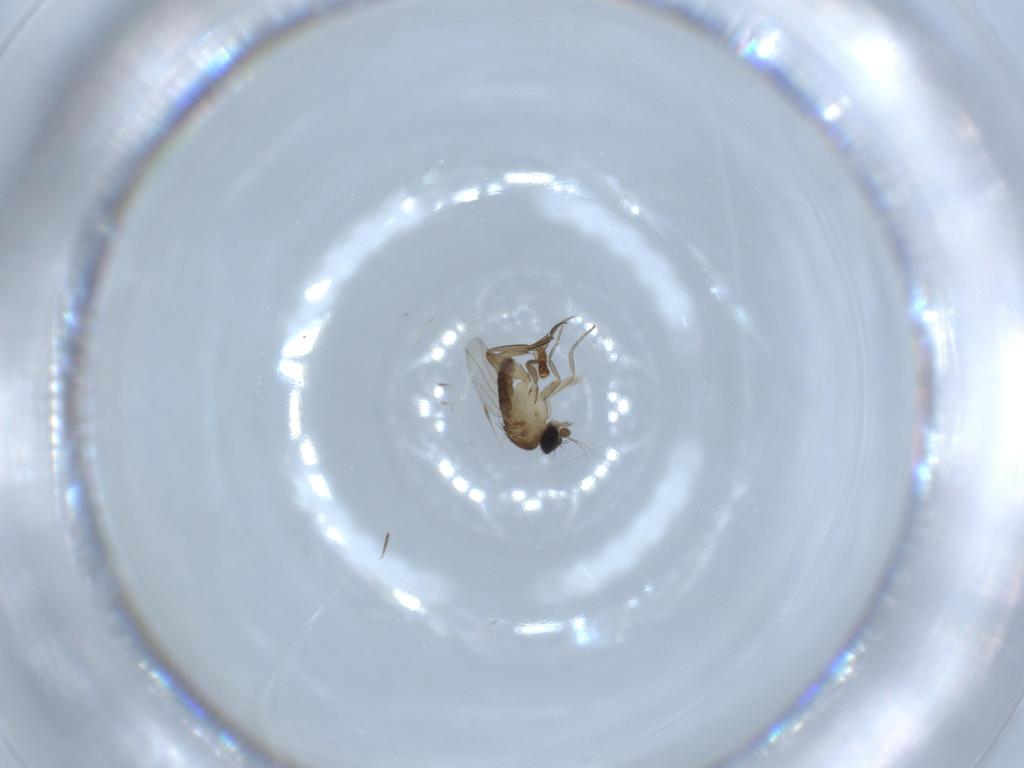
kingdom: Animalia
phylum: Arthropoda
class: Insecta
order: Diptera
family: Phoridae
